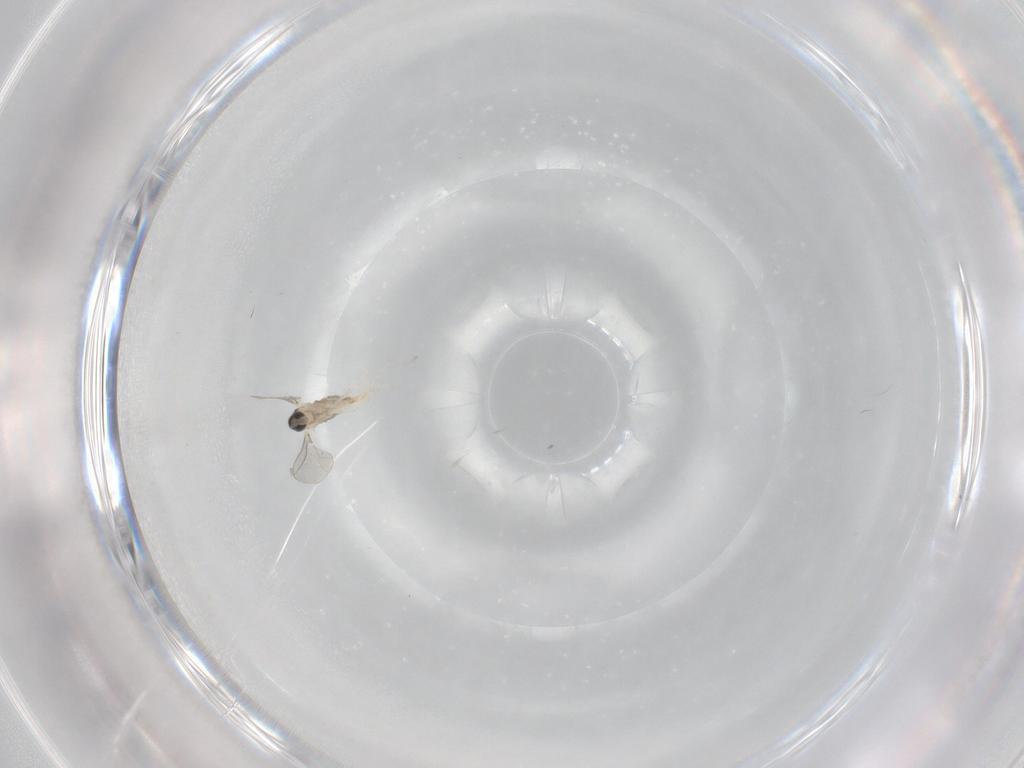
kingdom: Animalia
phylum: Arthropoda
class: Insecta
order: Diptera
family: Cecidomyiidae
